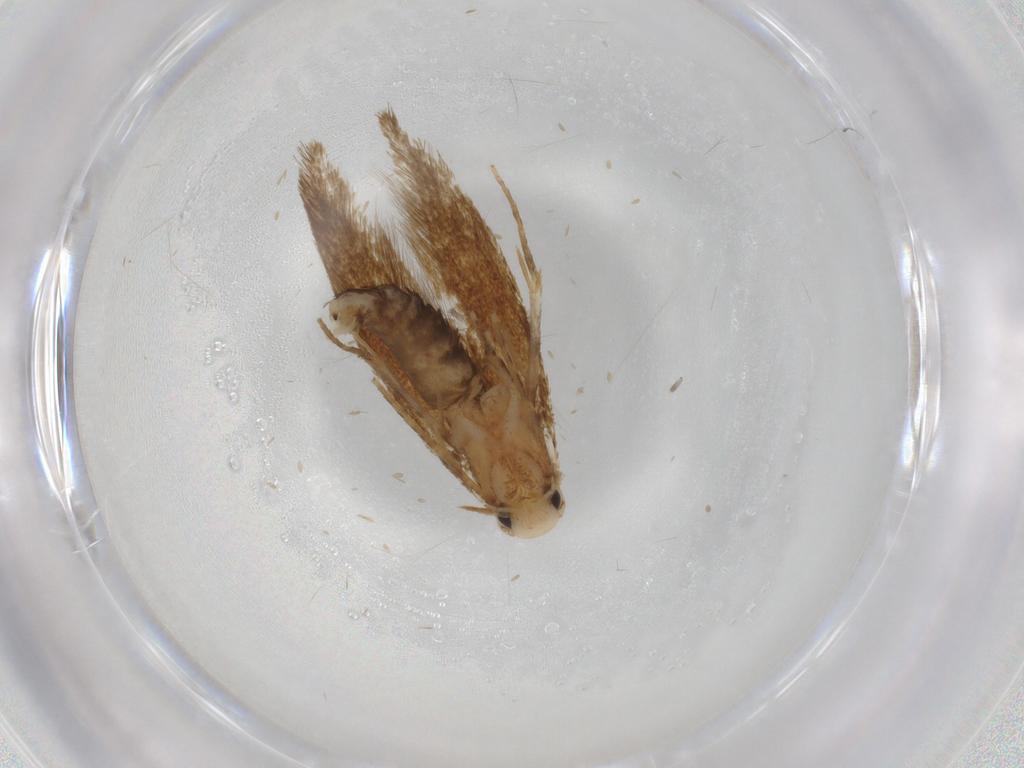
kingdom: Animalia
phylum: Arthropoda
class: Insecta
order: Lepidoptera
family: Tineidae
